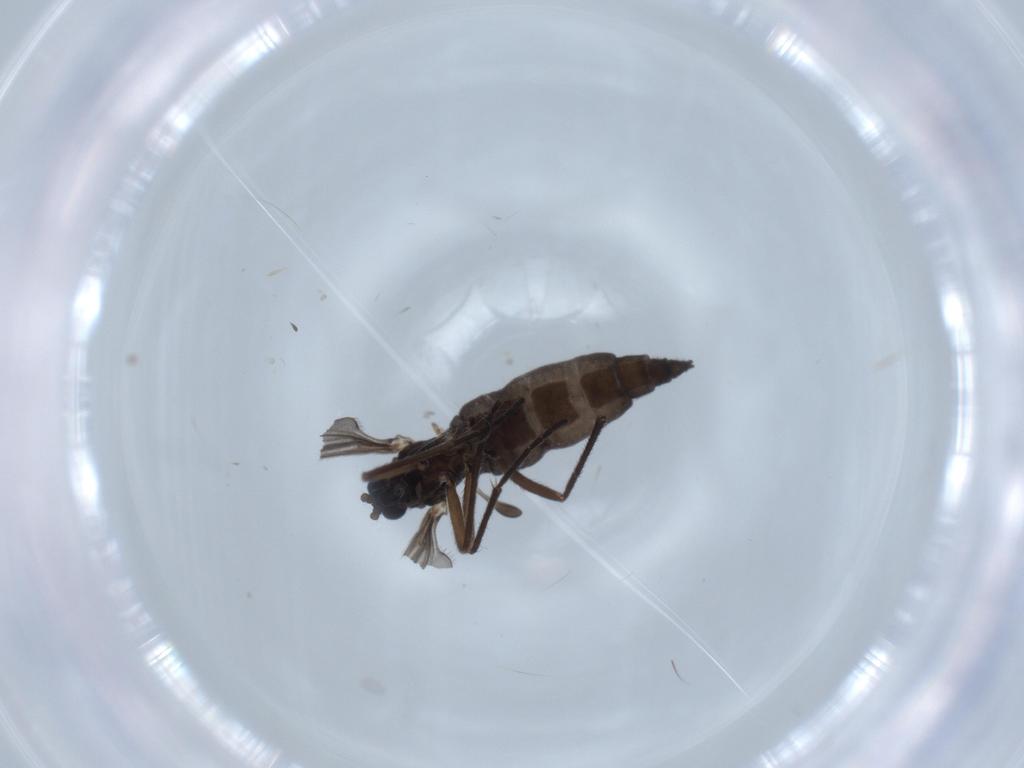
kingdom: Animalia
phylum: Arthropoda
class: Insecta
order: Diptera
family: Sciaridae
